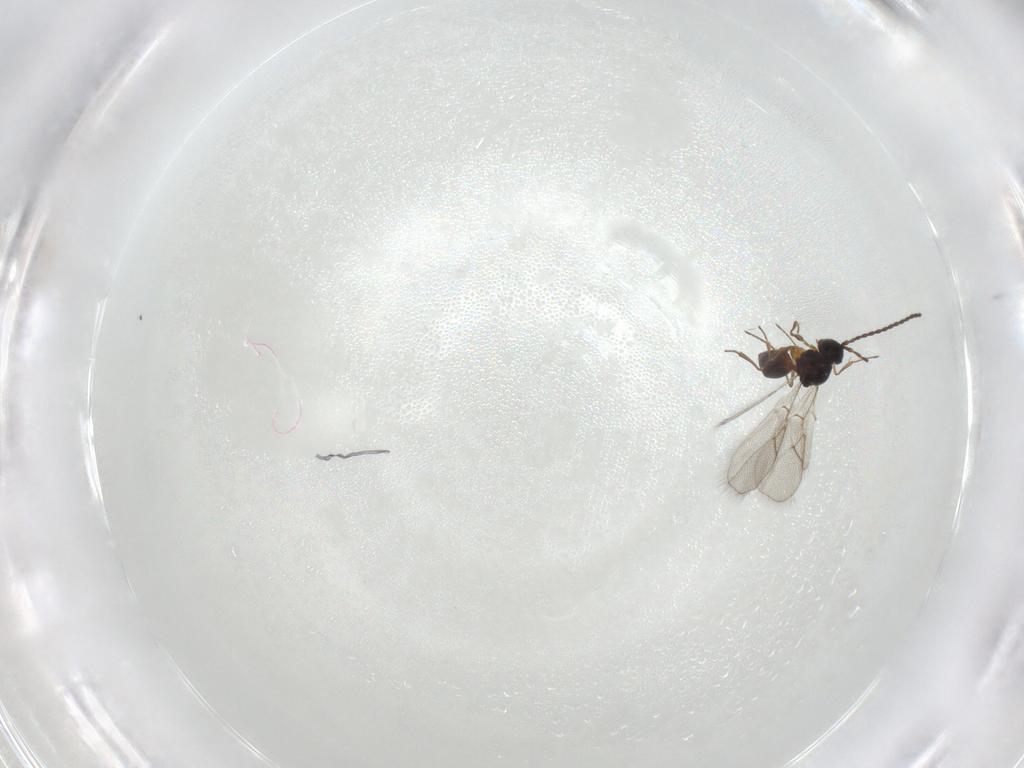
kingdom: Animalia
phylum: Arthropoda
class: Insecta
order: Hymenoptera
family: Figitidae
